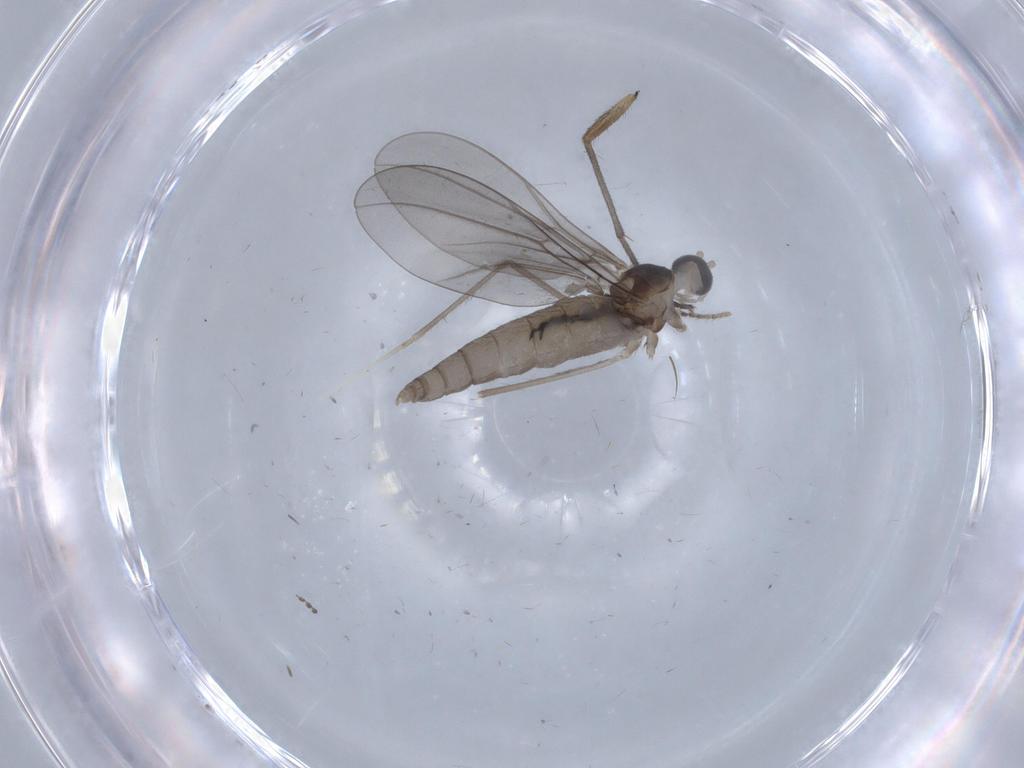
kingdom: Animalia
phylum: Arthropoda
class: Insecta
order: Diptera
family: Cecidomyiidae
